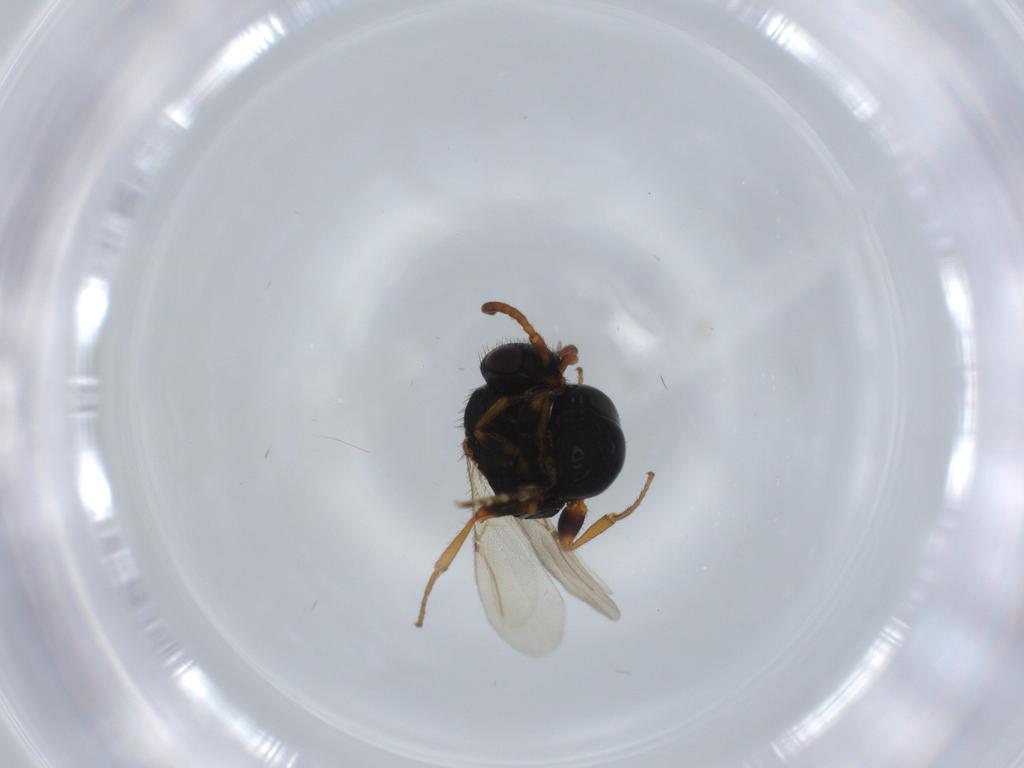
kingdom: Animalia
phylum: Arthropoda
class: Insecta
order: Hymenoptera
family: Bethylidae
